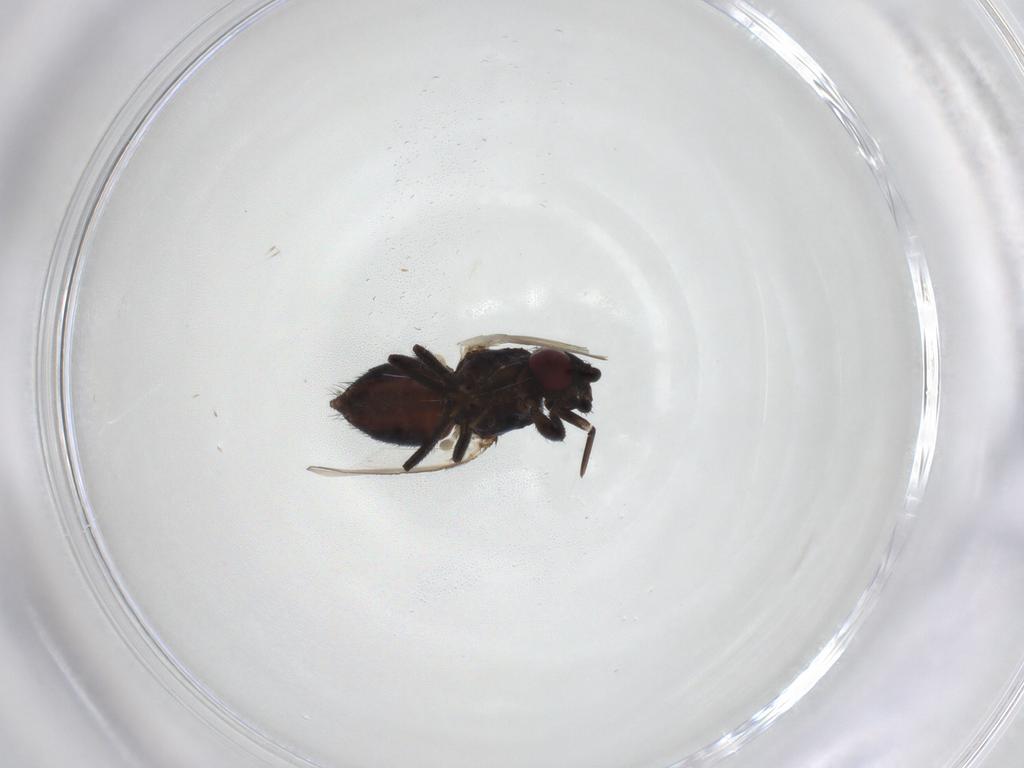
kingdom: Animalia
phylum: Arthropoda
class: Insecta
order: Diptera
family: Milichiidae
